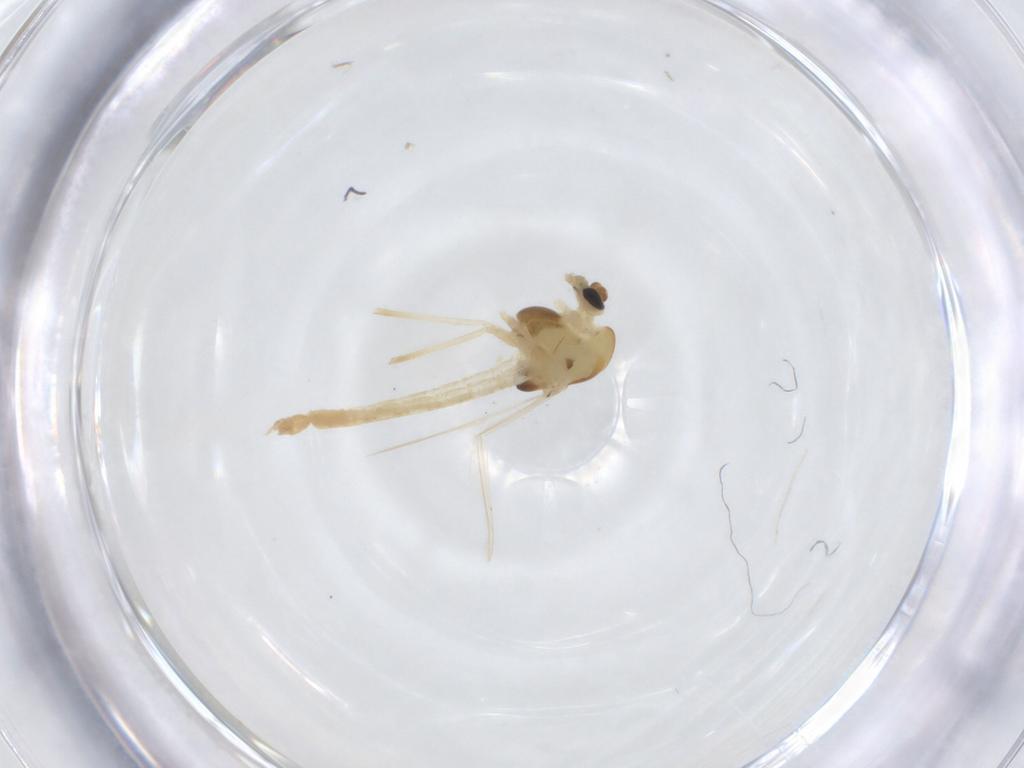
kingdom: Animalia
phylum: Arthropoda
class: Insecta
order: Diptera
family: Chironomidae
